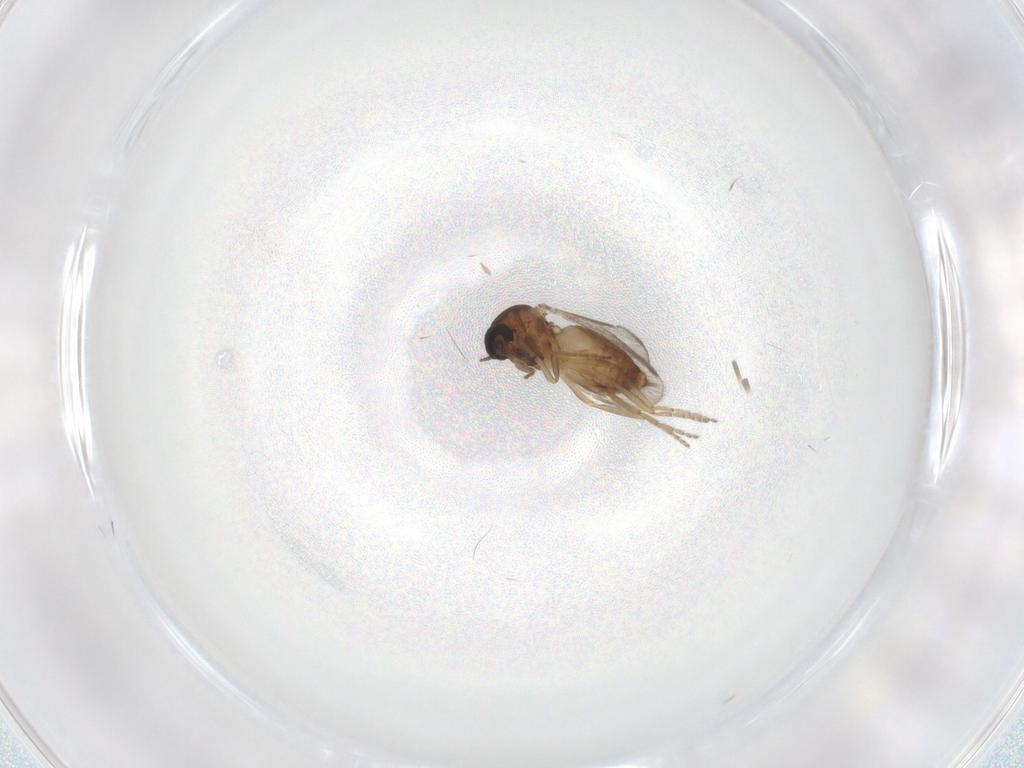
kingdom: Animalia
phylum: Arthropoda
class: Insecta
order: Diptera
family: Ceratopogonidae
